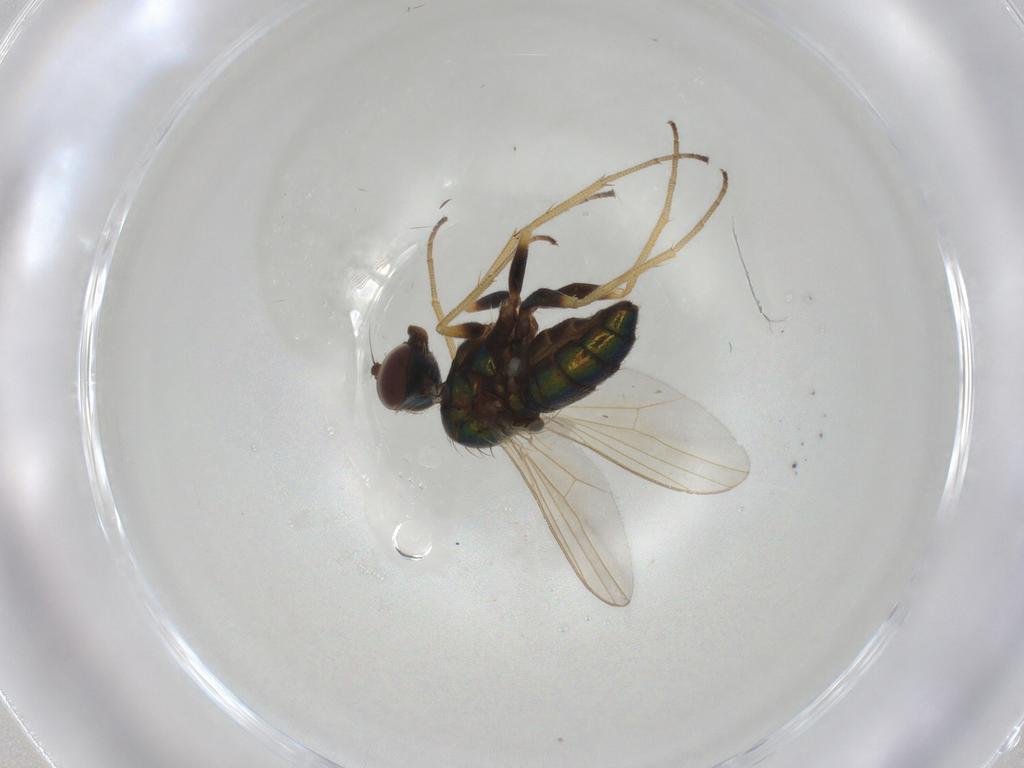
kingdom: Animalia
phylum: Arthropoda
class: Insecta
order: Diptera
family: Dolichopodidae
